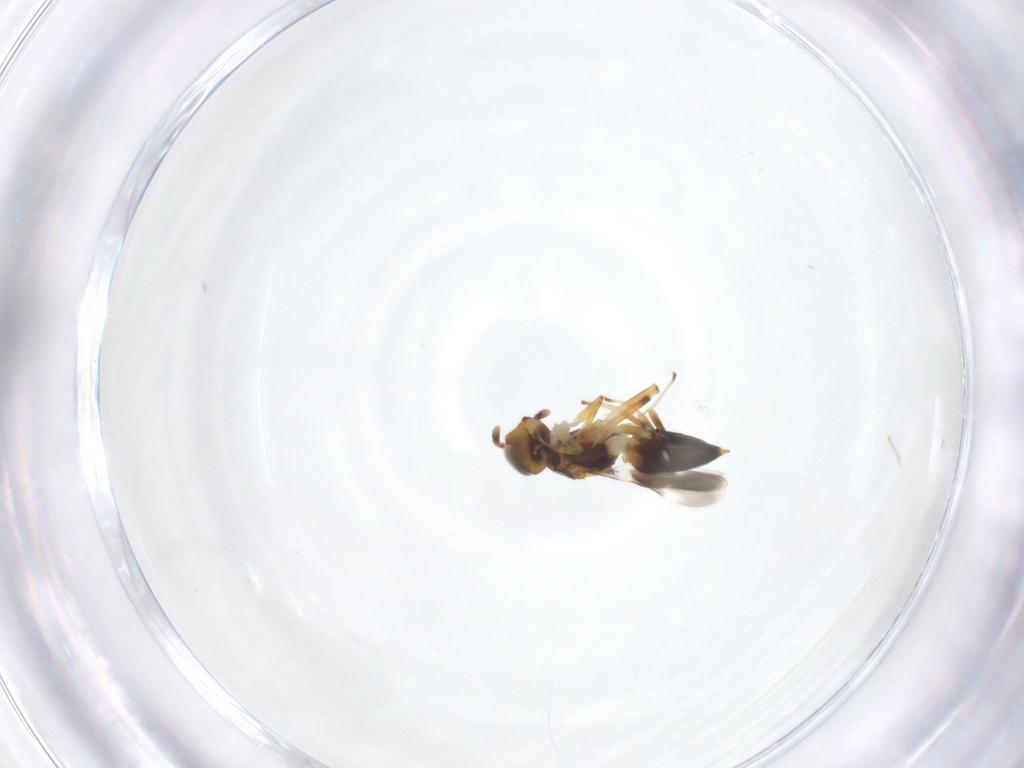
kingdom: Animalia
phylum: Arthropoda
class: Insecta
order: Hymenoptera
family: Encyrtidae
